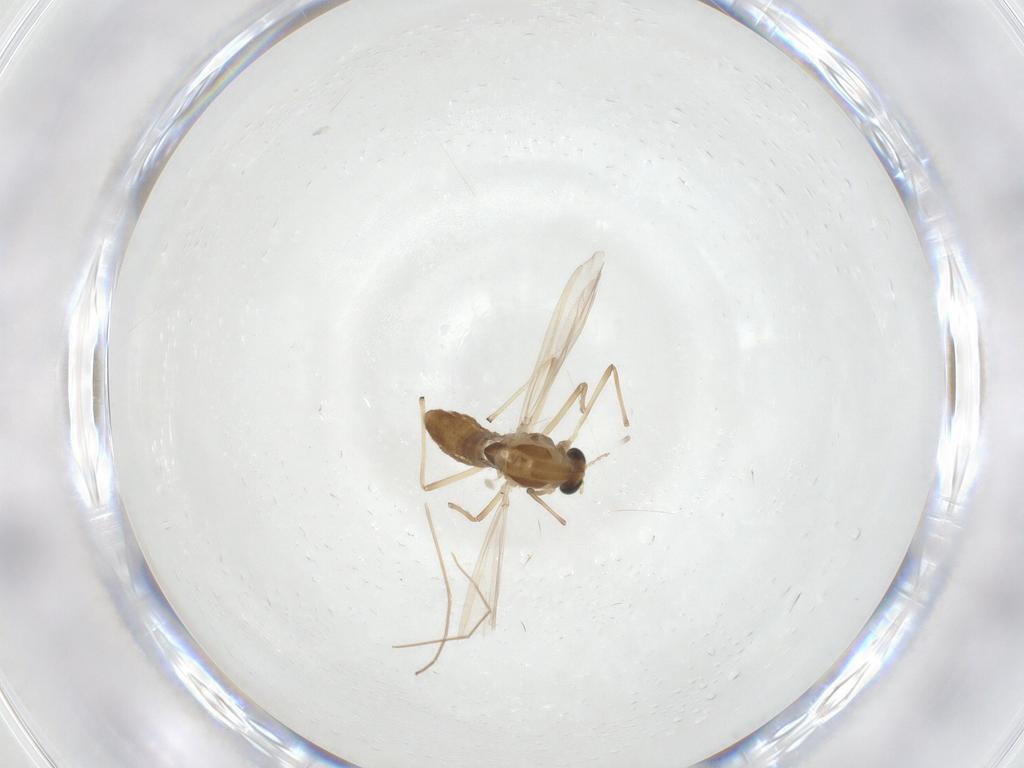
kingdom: Animalia
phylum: Arthropoda
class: Insecta
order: Diptera
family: Chironomidae
